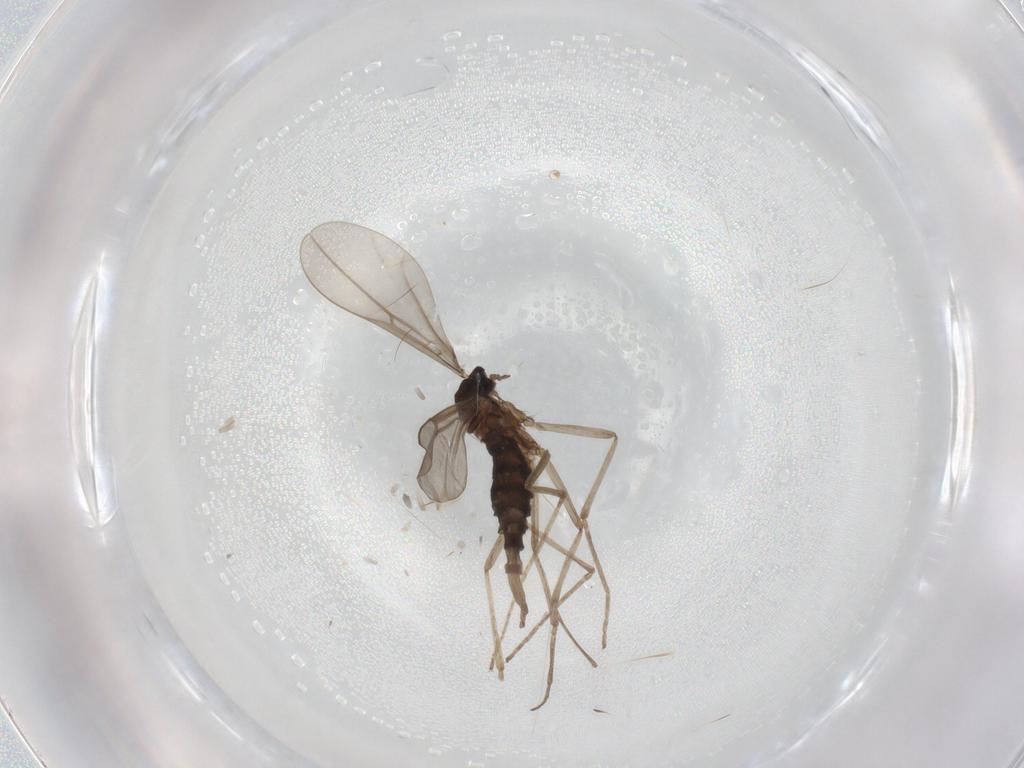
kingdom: Animalia
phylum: Arthropoda
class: Insecta
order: Diptera
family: Cecidomyiidae
